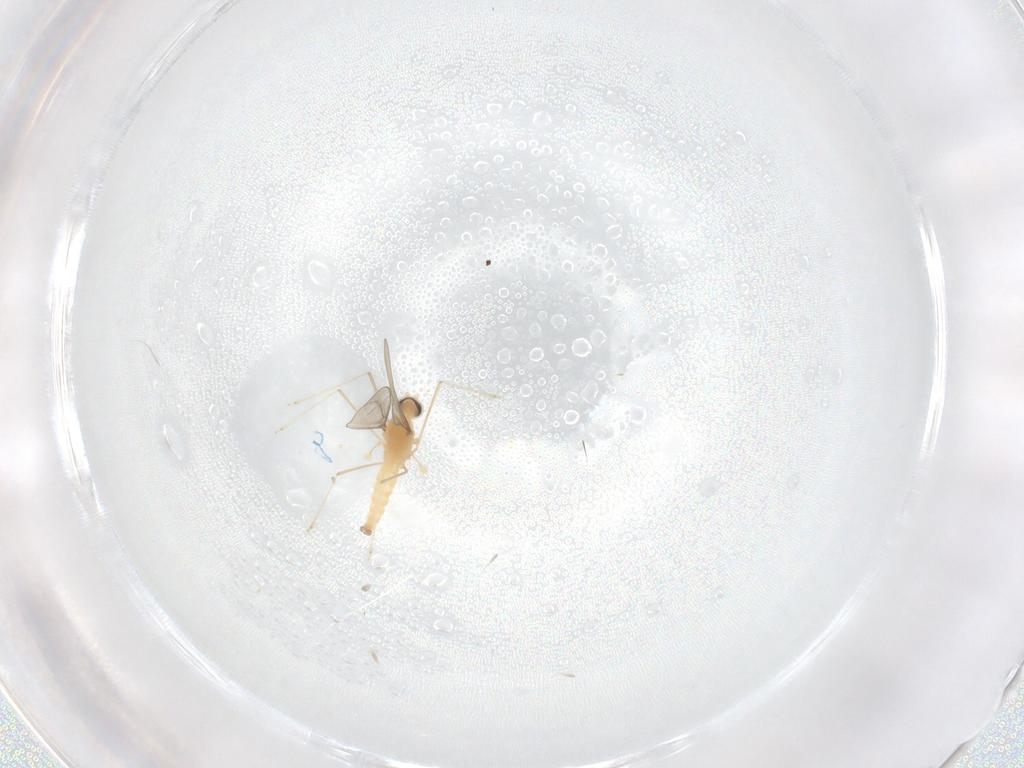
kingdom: Animalia
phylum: Arthropoda
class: Insecta
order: Diptera
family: Cecidomyiidae
